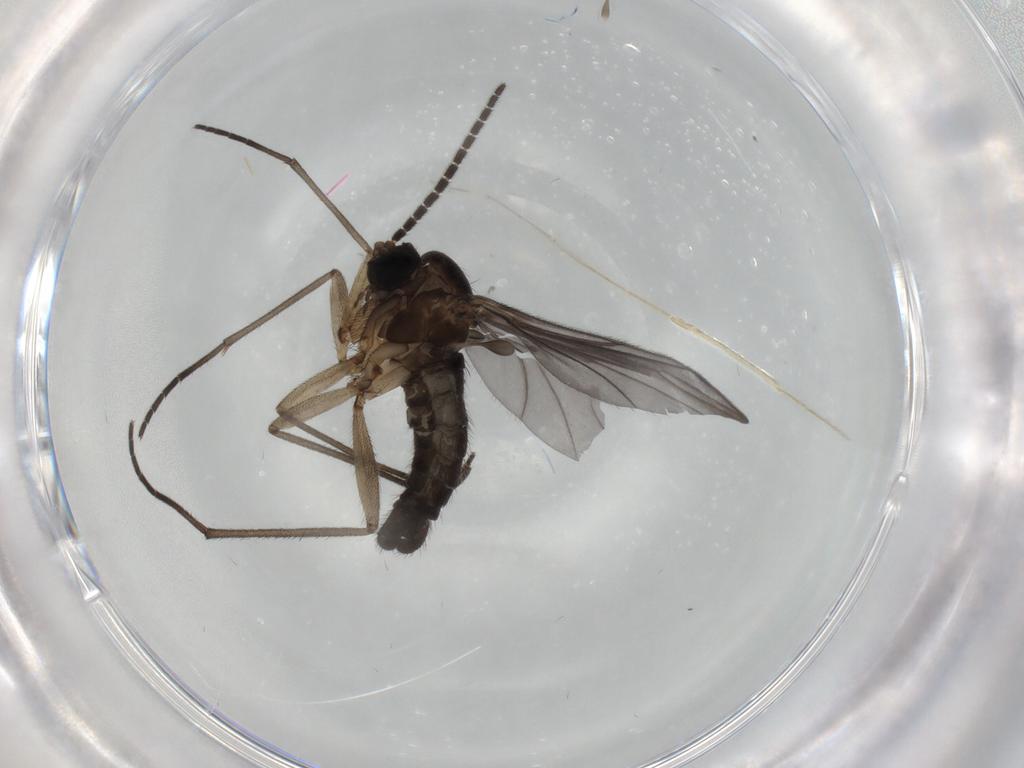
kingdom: Animalia
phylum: Arthropoda
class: Insecta
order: Diptera
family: Sciaridae
